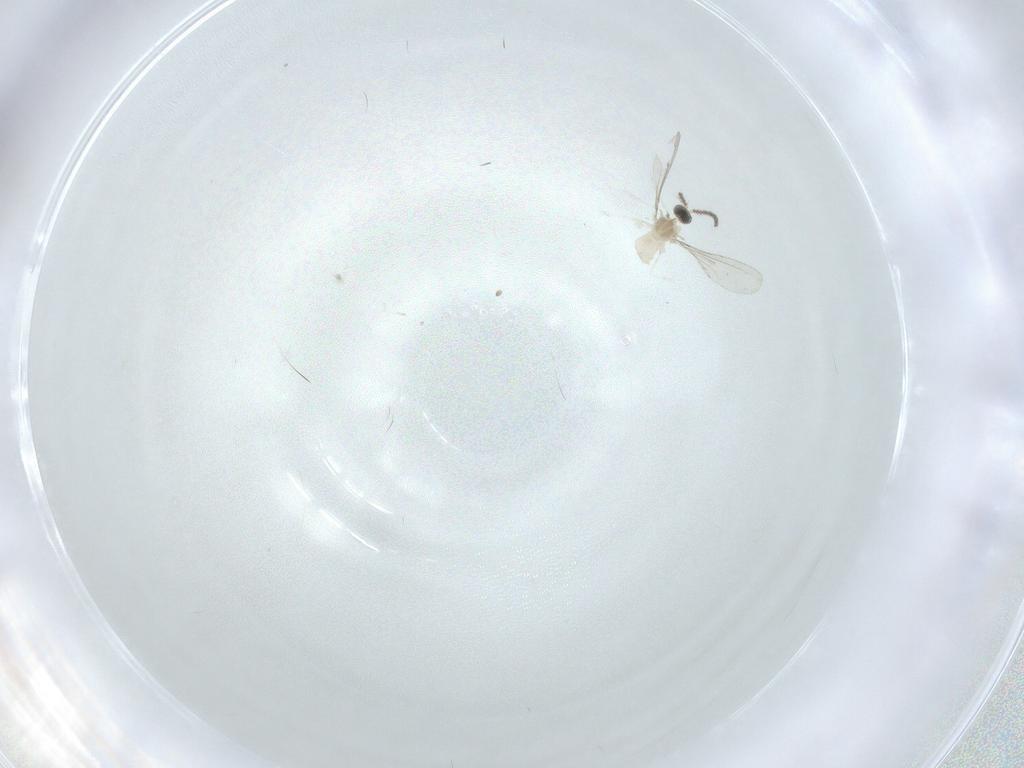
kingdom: Animalia
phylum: Arthropoda
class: Insecta
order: Diptera
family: Cecidomyiidae
